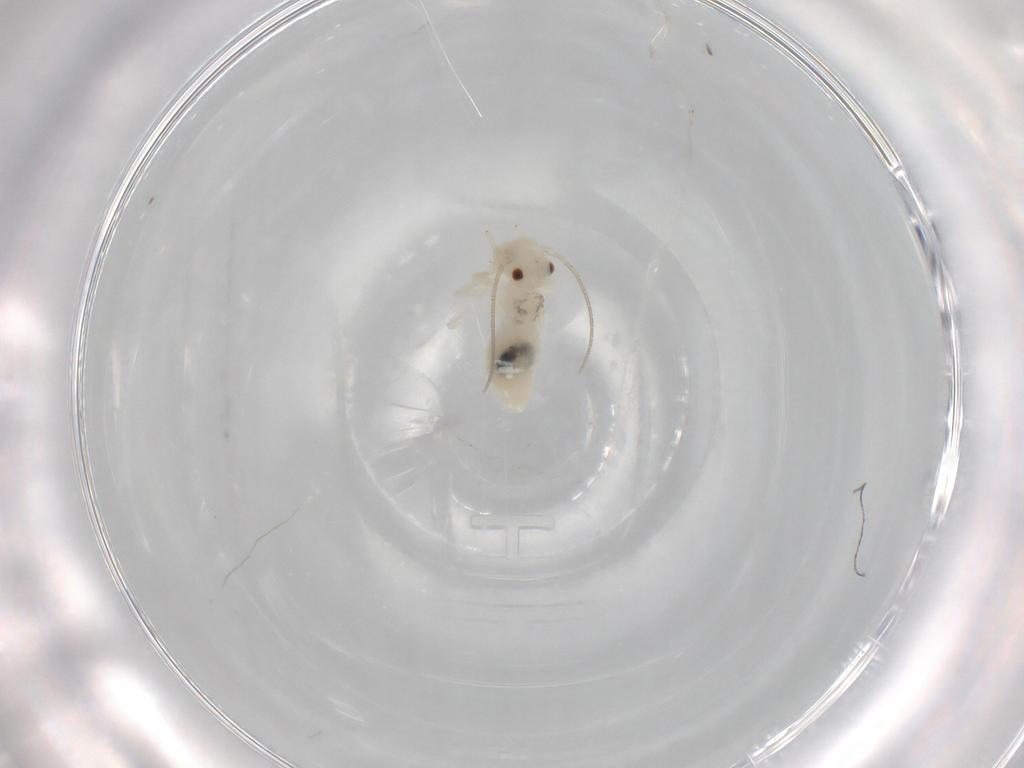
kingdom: Animalia
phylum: Arthropoda
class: Insecta
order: Psocodea
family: Caeciliusidae
